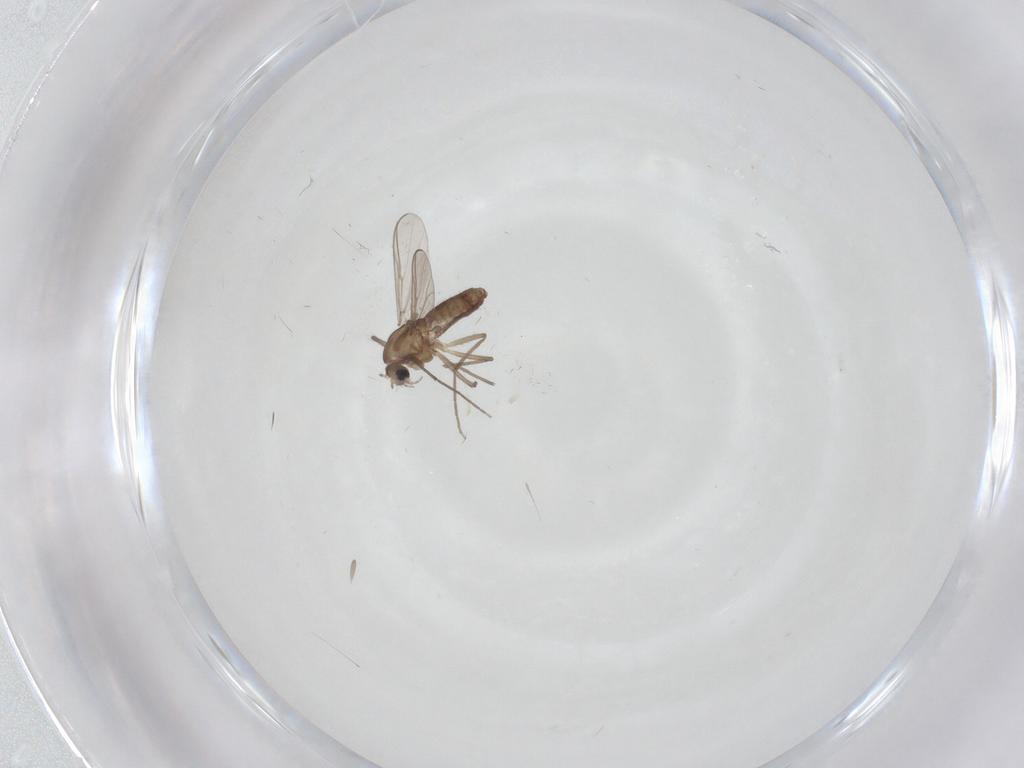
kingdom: Animalia
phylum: Arthropoda
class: Insecta
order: Diptera
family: Chironomidae
